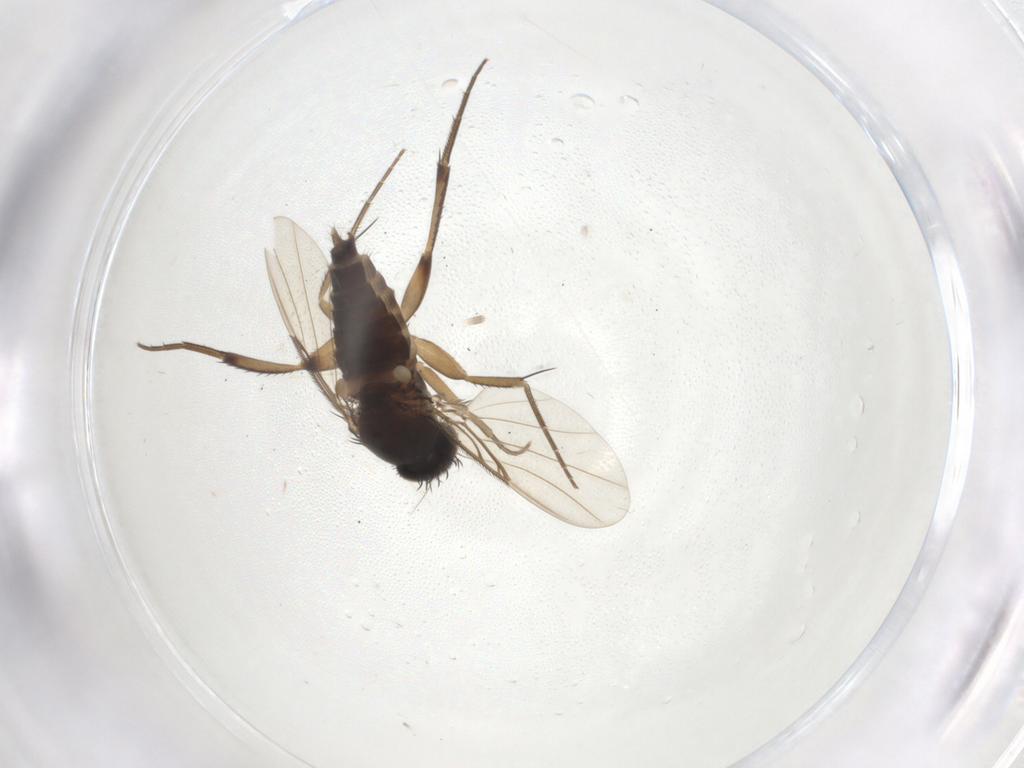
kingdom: Animalia
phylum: Arthropoda
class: Insecta
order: Diptera
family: Phoridae
